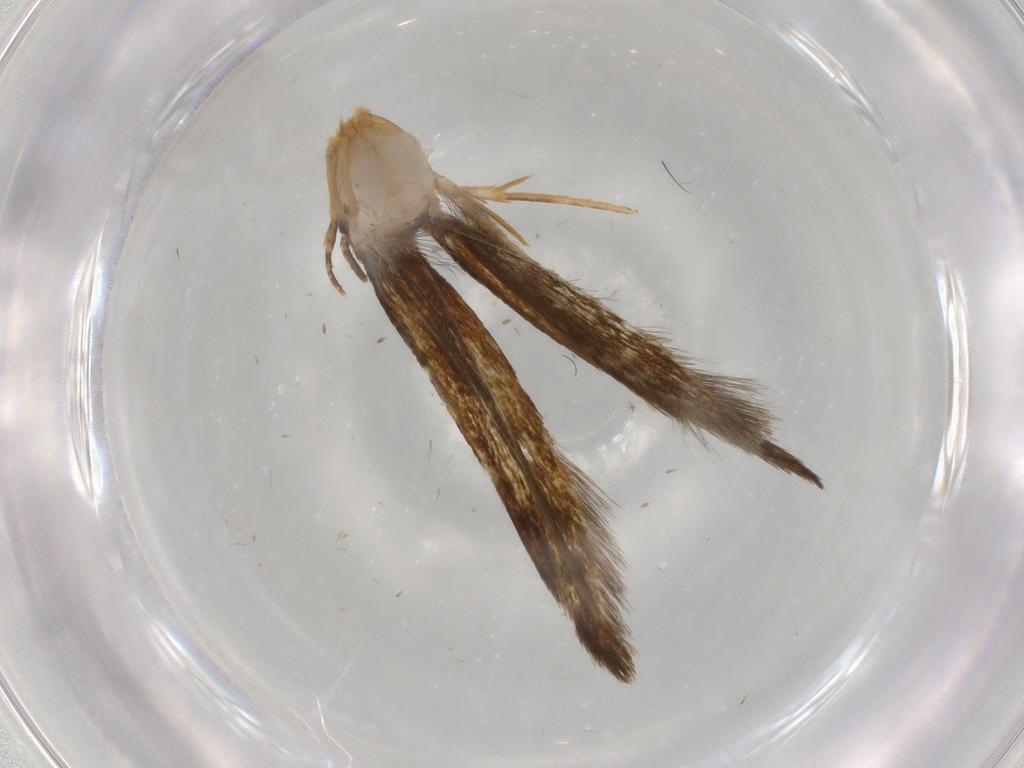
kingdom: Animalia
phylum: Arthropoda
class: Insecta
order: Lepidoptera
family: Tineidae
